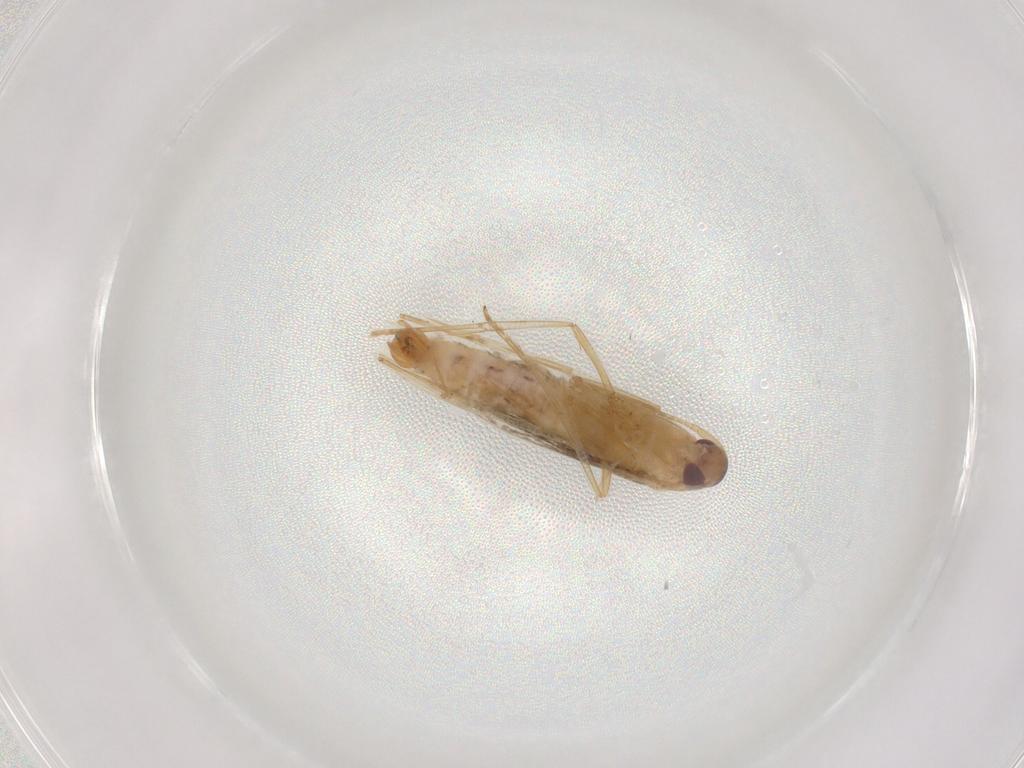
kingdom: Animalia
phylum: Arthropoda
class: Insecta
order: Lepidoptera
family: Cosmopterigidae
